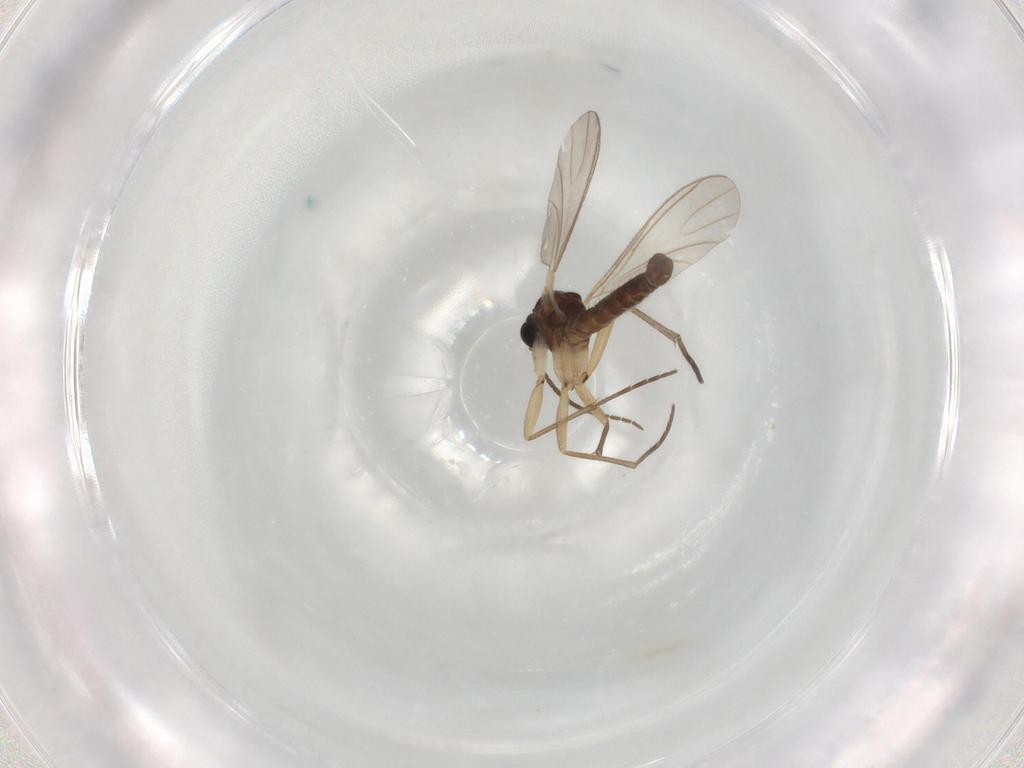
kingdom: Animalia
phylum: Arthropoda
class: Insecta
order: Diptera
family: Sciaridae
